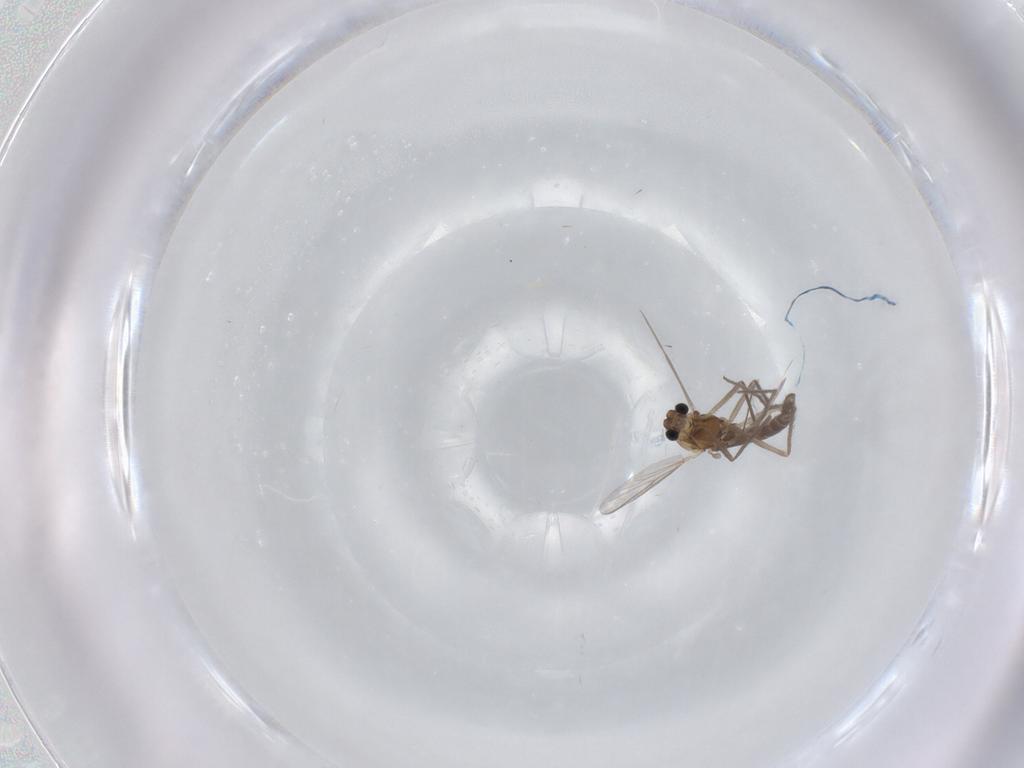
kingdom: Animalia
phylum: Arthropoda
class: Insecta
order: Diptera
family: Chironomidae
